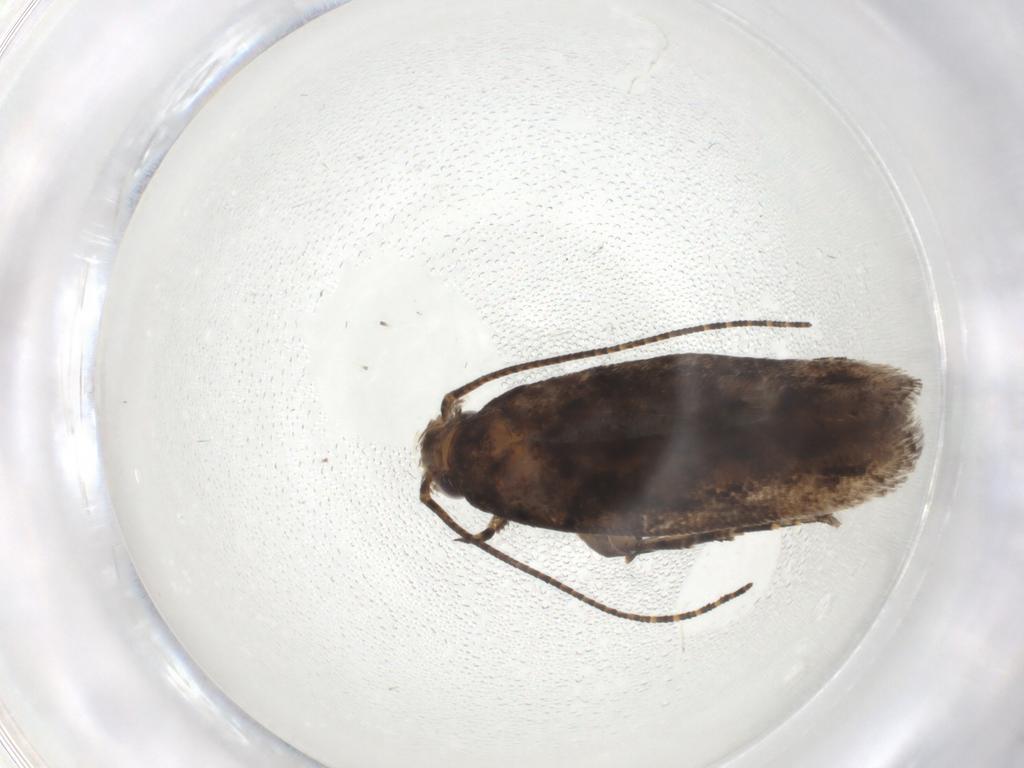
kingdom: Animalia
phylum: Arthropoda
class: Insecta
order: Lepidoptera
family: Gelechiidae
